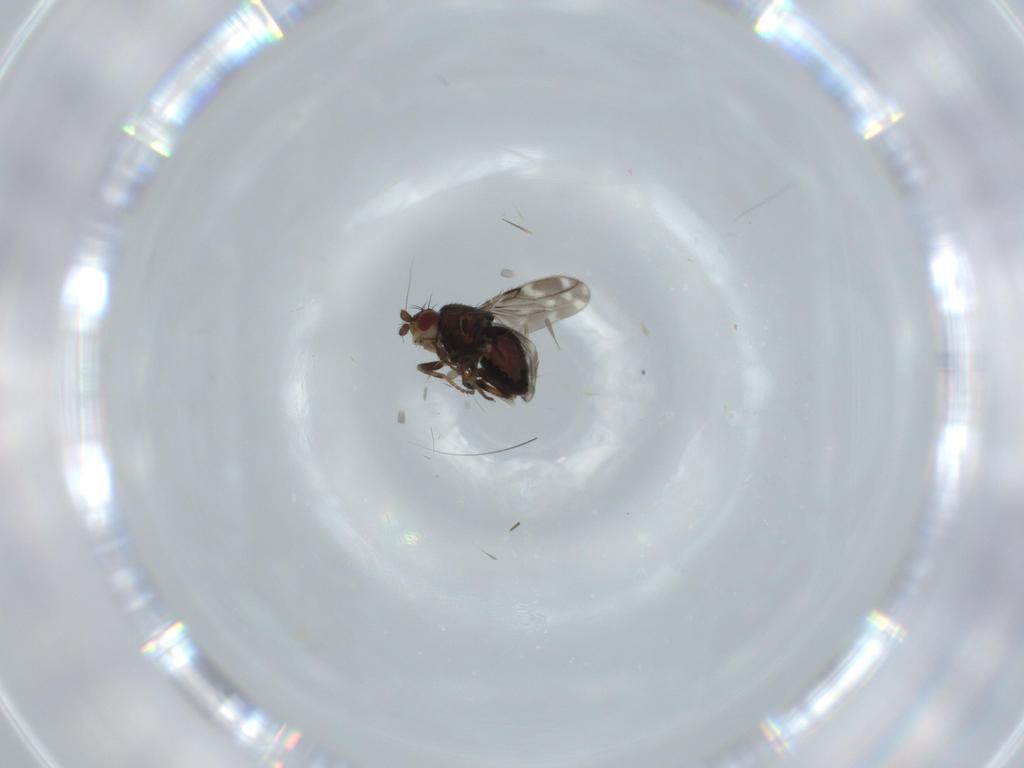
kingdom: Animalia
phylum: Arthropoda
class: Insecta
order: Diptera
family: Sphaeroceridae
